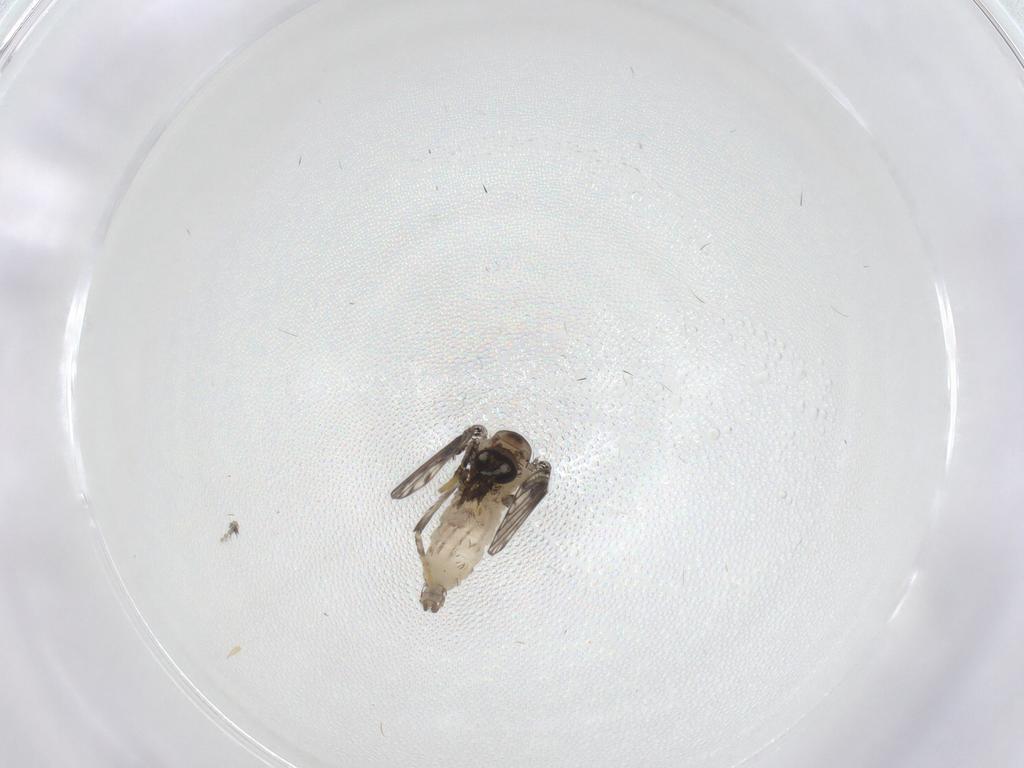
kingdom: Animalia
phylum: Arthropoda
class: Insecta
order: Diptera
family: Psychodidae
